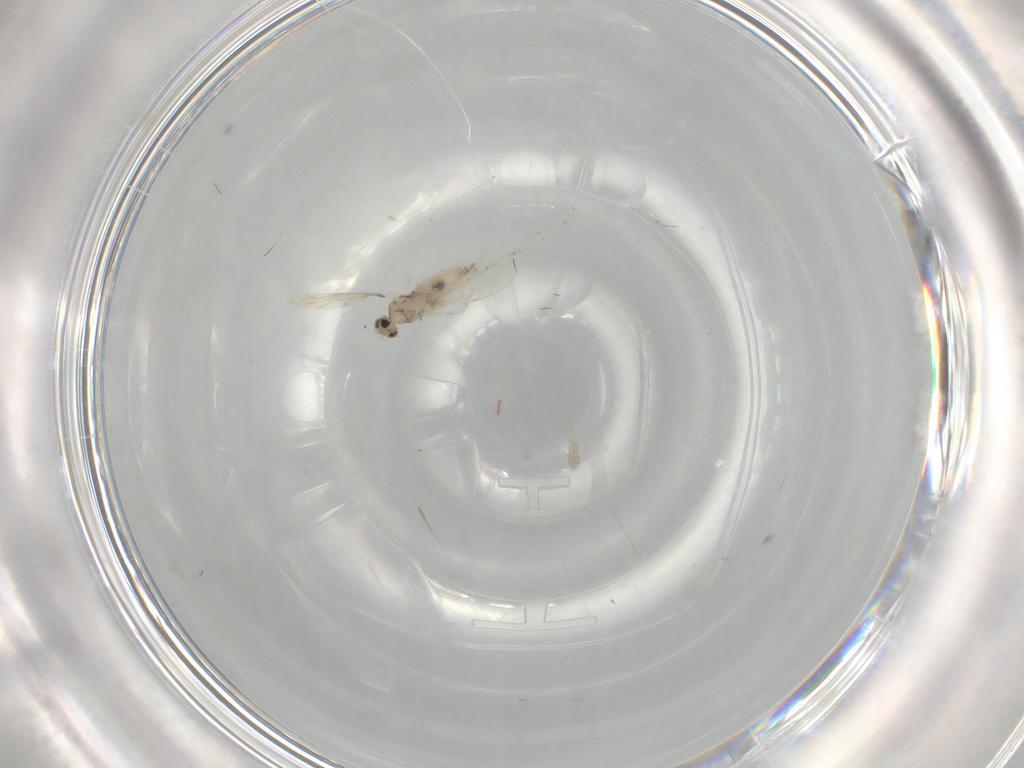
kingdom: Animalia
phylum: Arthropoda
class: Insecta
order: Diptera
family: Cecidomyiidae
